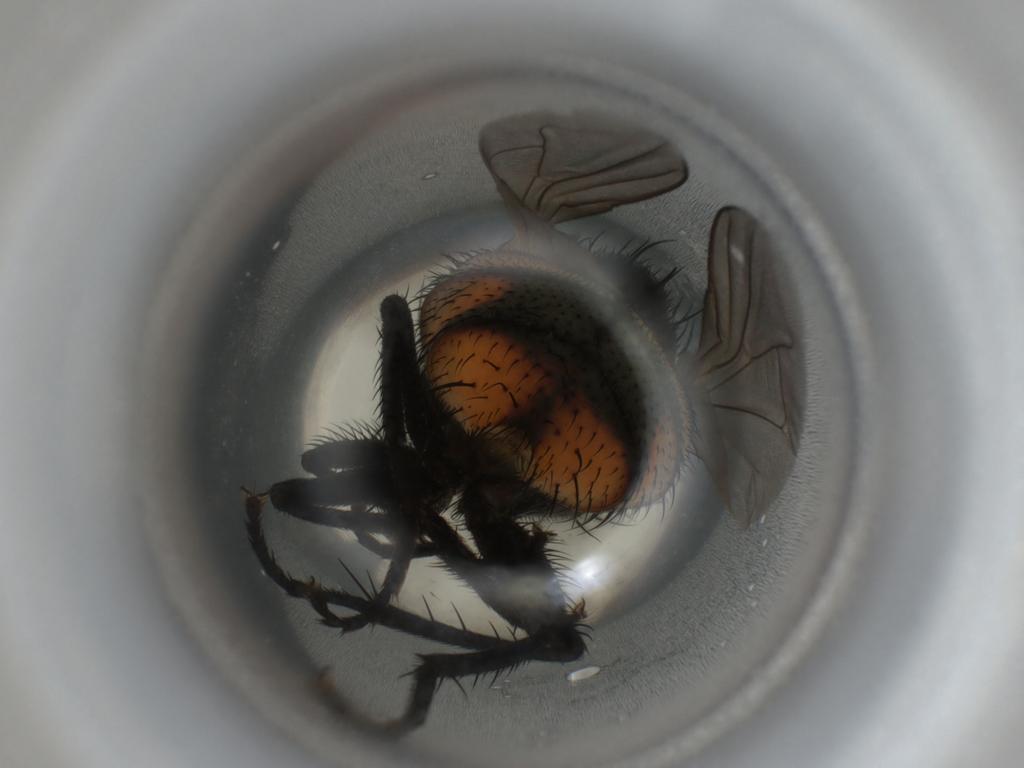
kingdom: Animalia
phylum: Arthropoda
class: Insecta
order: Diptera
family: Muscidae
